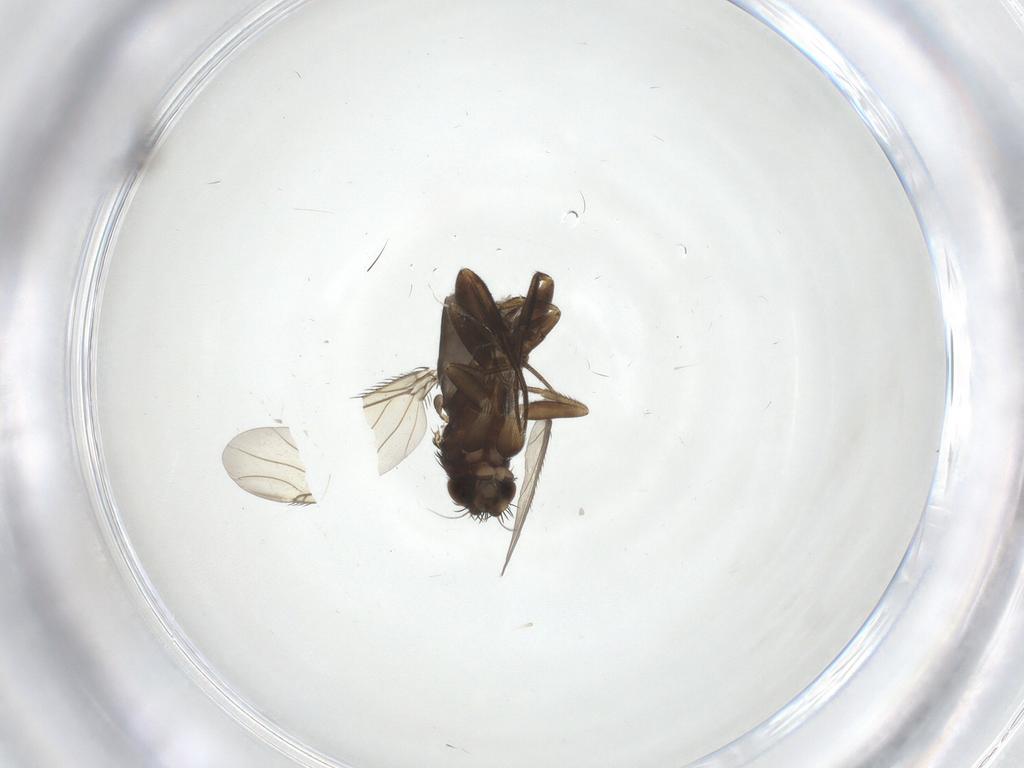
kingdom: Animalia
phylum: Arthropoda
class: Insecta
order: Diptera
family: Phoridae
